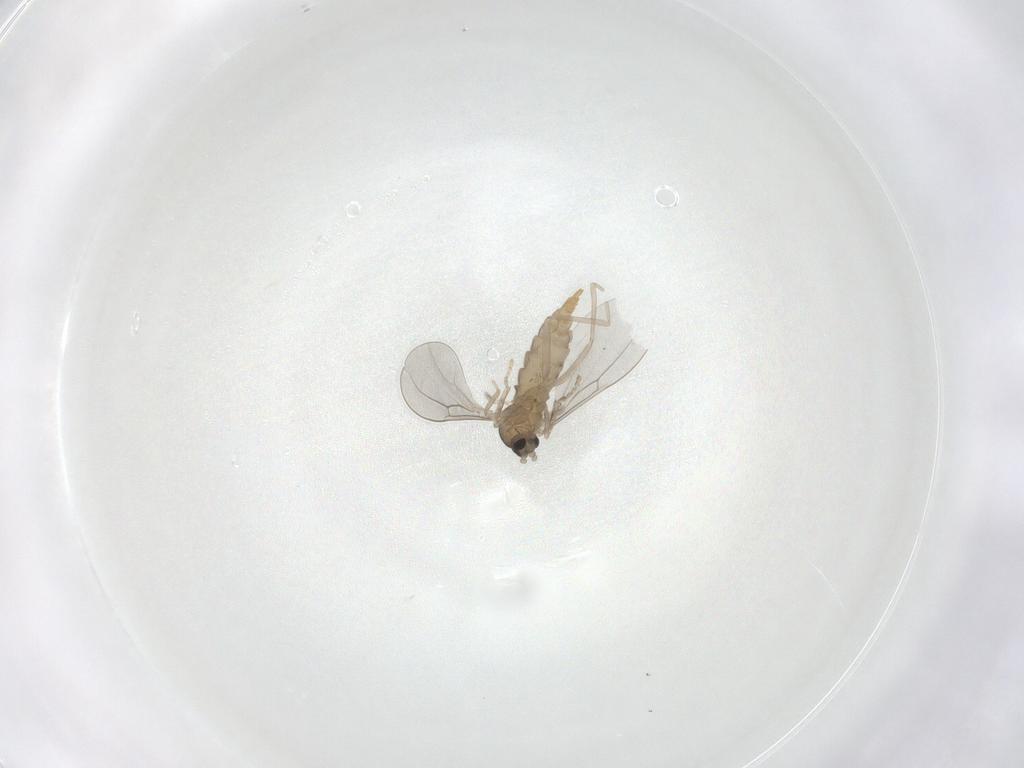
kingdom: Animalia
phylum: Arthropoda
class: Insecta
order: Diptera
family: Cecidomyiidae
